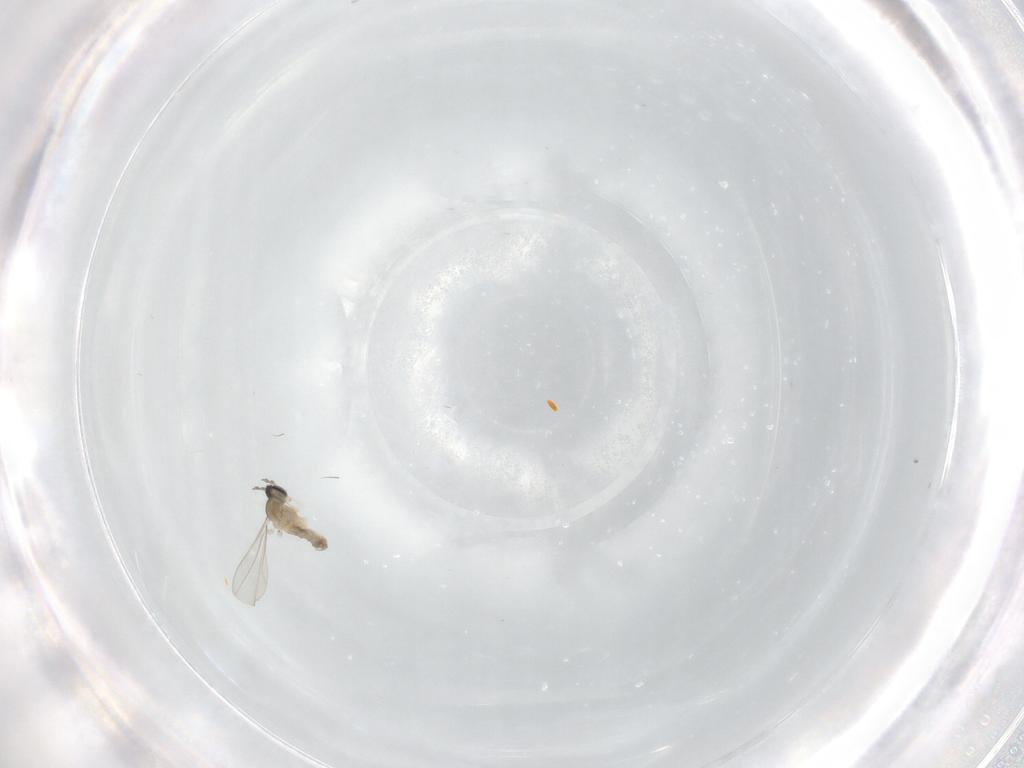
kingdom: Animalia
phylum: Arthropoda
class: Insecta
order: Diptera
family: Cecidomyiidae
